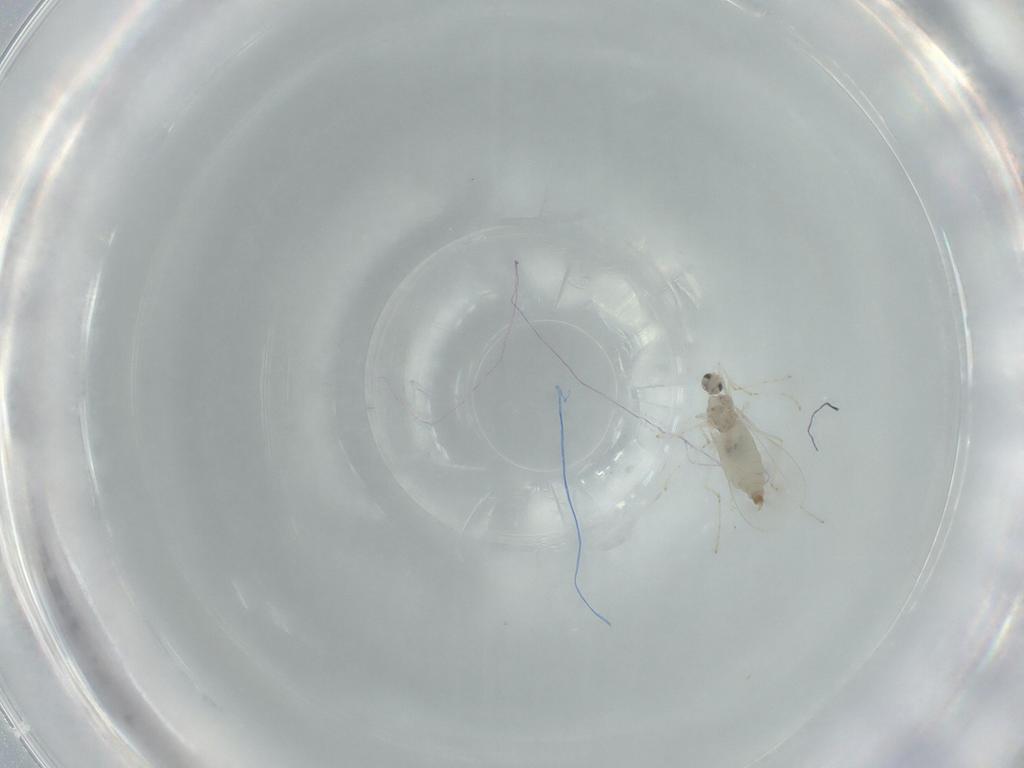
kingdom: Animalia
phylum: Arthropoda
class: Insecta
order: Diptera
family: Cecidomyiidae
